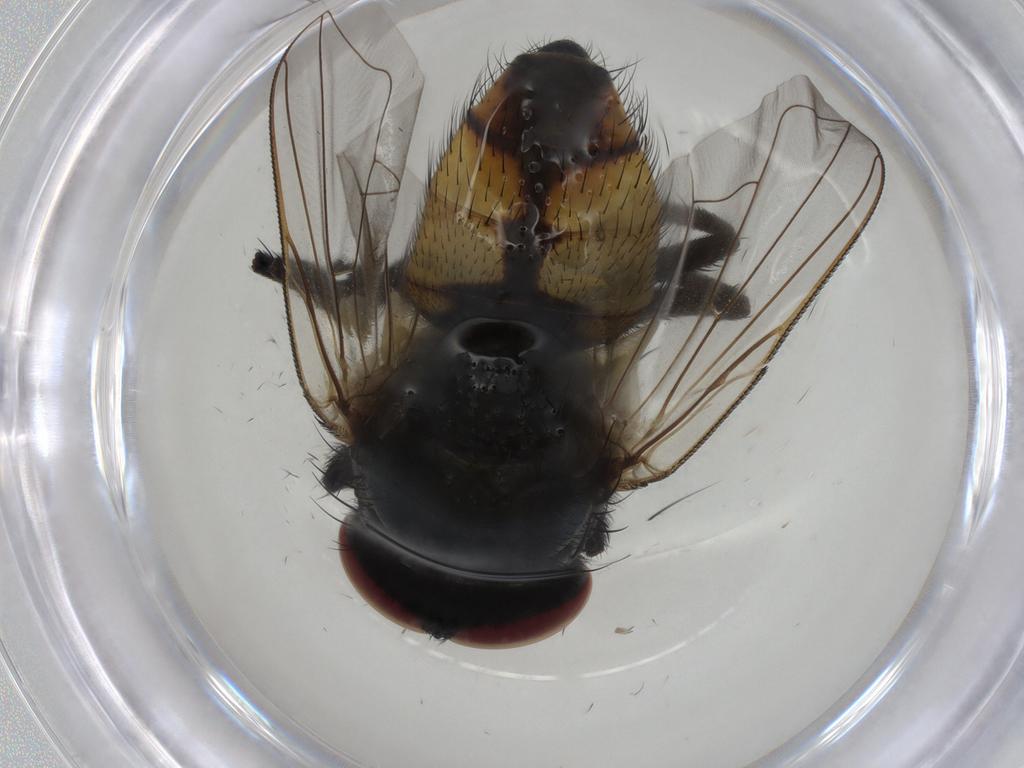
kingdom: Animalia
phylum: Arthropoda
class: Insecta
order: Diptera
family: Muscidae
